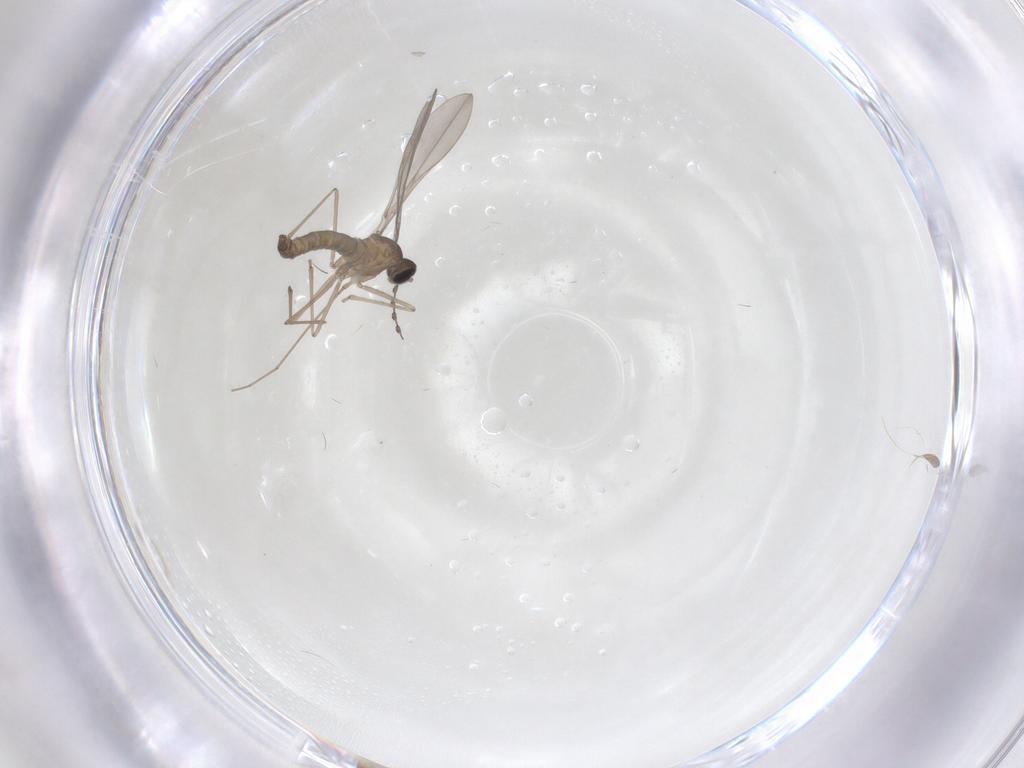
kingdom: Animalia
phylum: Arthropoda
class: Insecta
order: Diptera
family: Cecidomyiidae
